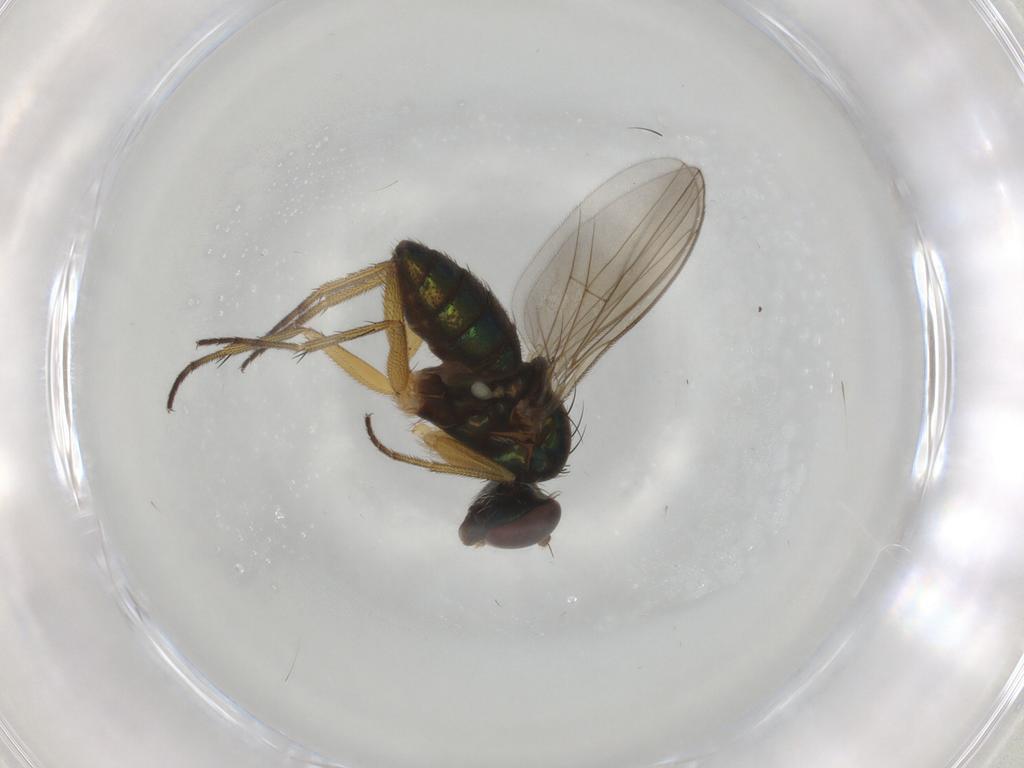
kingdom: Animalia
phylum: Arthropoda
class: Insecta
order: Diptera
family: Dolichopodidae
